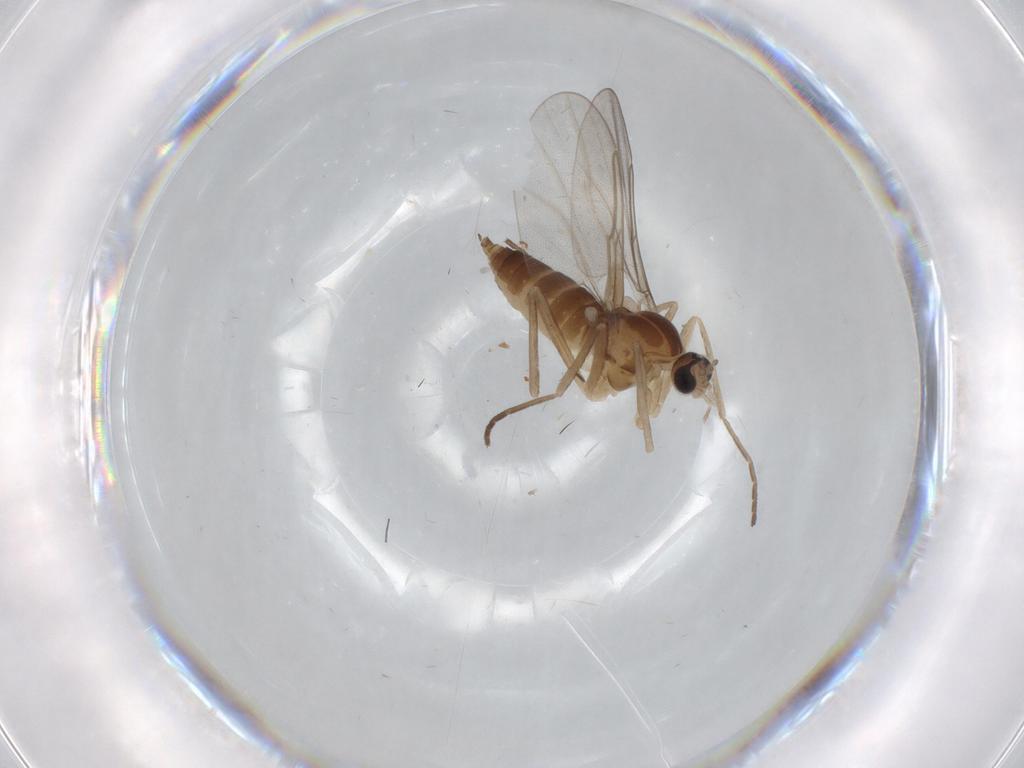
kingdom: Animalia
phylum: Arthropoda
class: Insecta
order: Diptera
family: Cecidomyiidae
